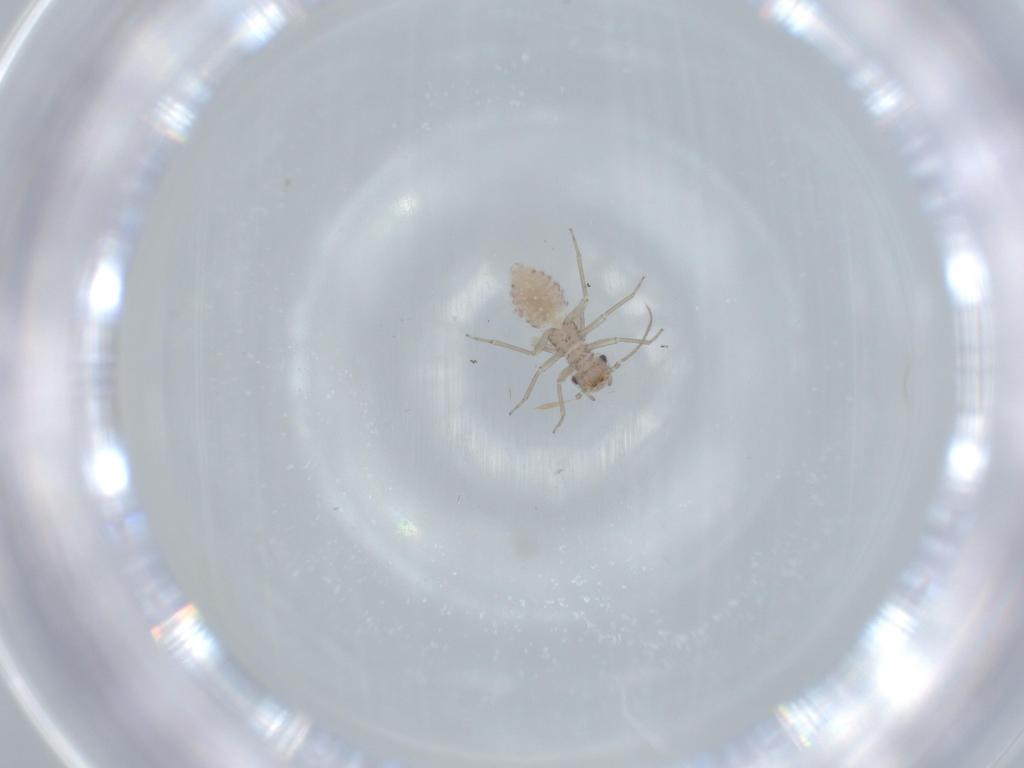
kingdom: Animalia
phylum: Arthropoda
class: Insecta
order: Psocodea
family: Lachesillidae
